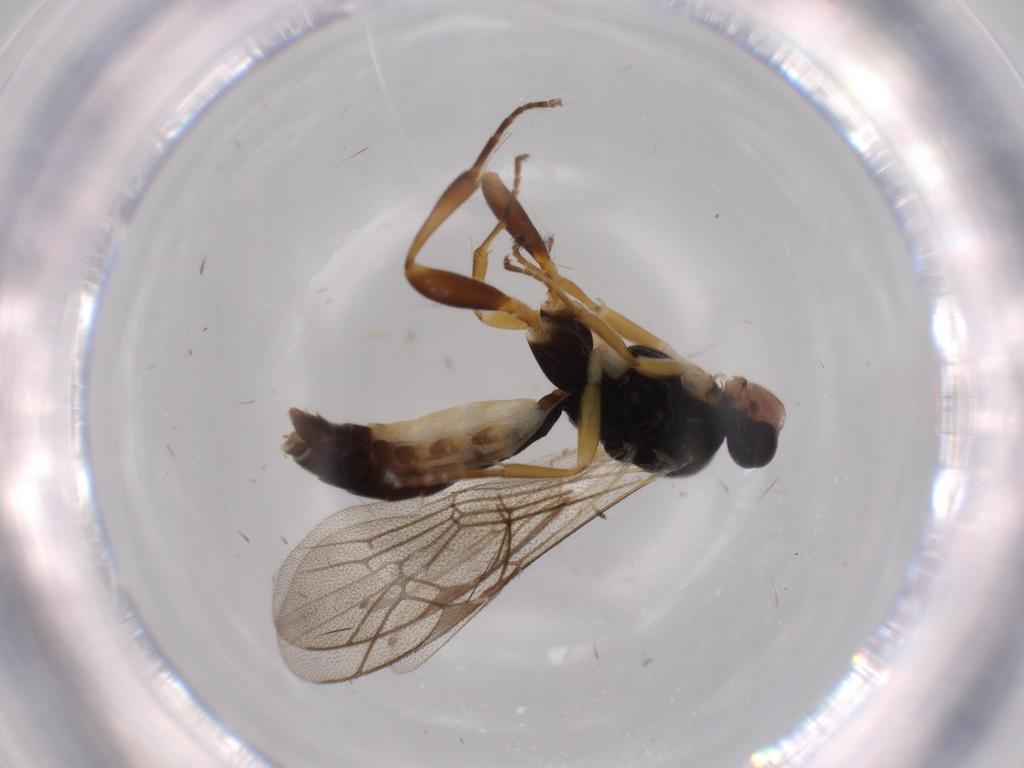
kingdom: Animalia
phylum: Arthropoda
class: Insecta
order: Hymenoptera
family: Ichneumonidae
